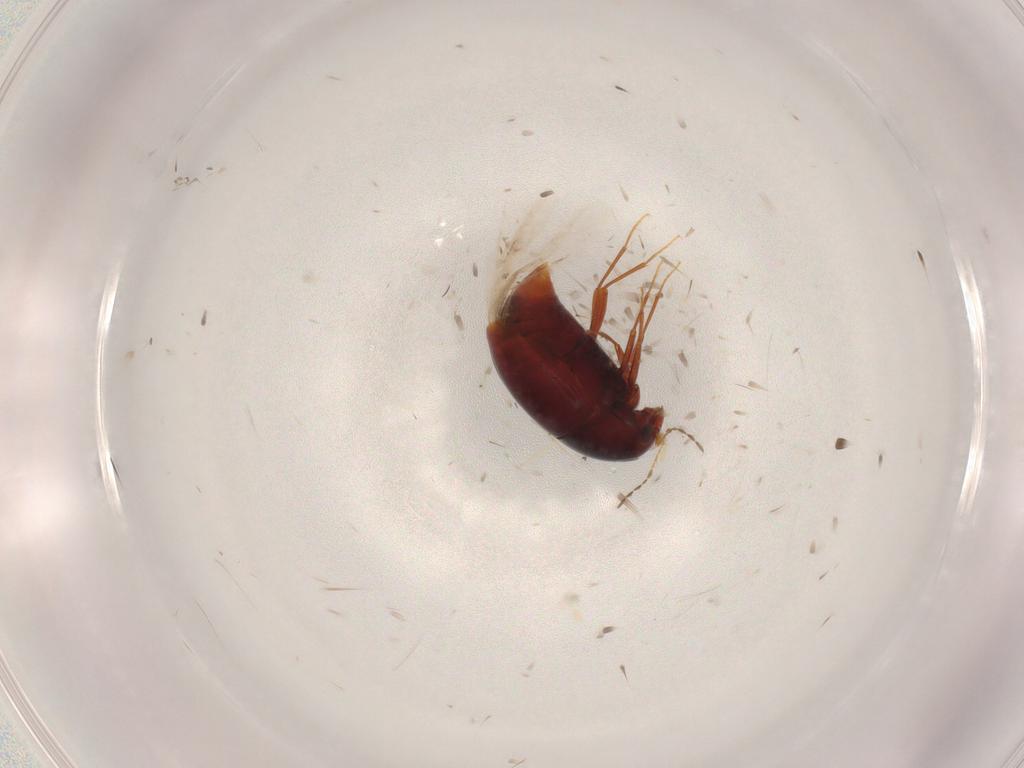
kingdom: Animalia
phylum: Arthropoda
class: Insecta
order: Coleoptera
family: Staphylinidae
